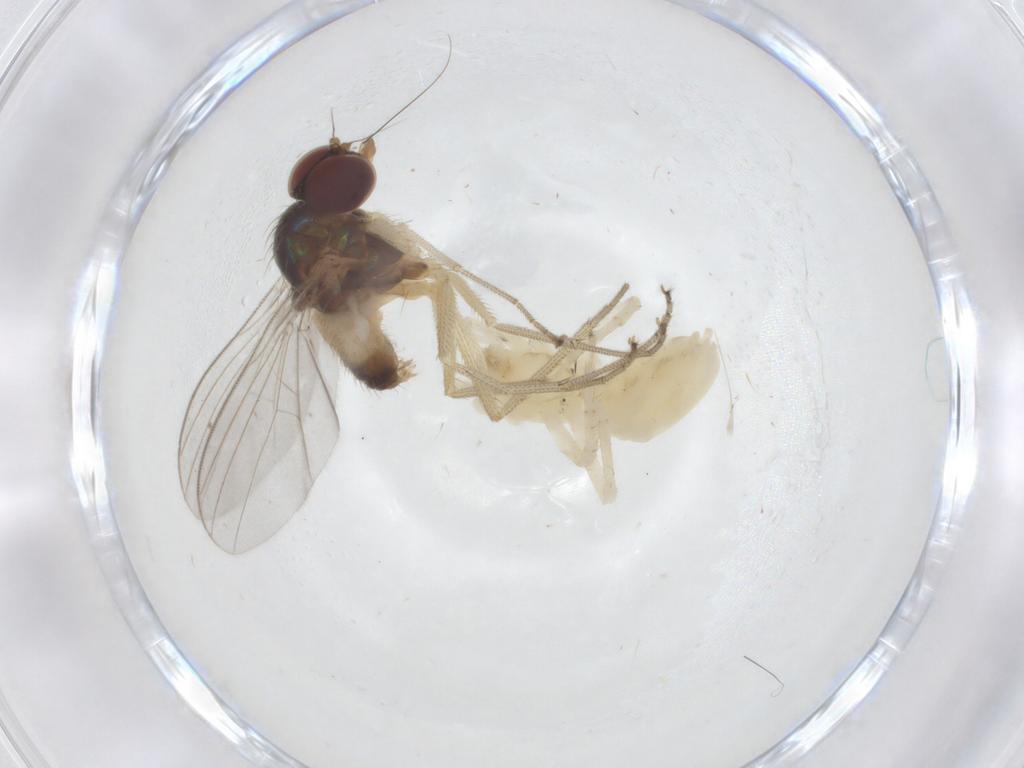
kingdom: Animalia
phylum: Arthropoda
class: Arachnida
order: Araneae
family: Anyphaenidae
